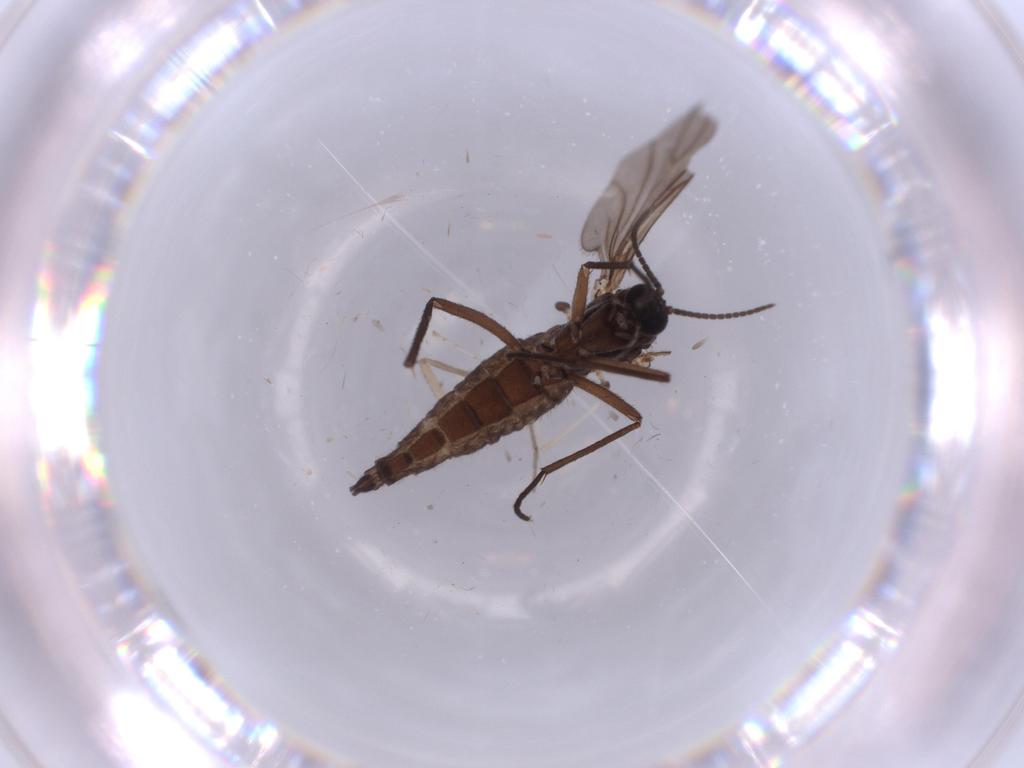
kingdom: Animalia
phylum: Arthropoda
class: Insecta
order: Diptera
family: Sciaridae
